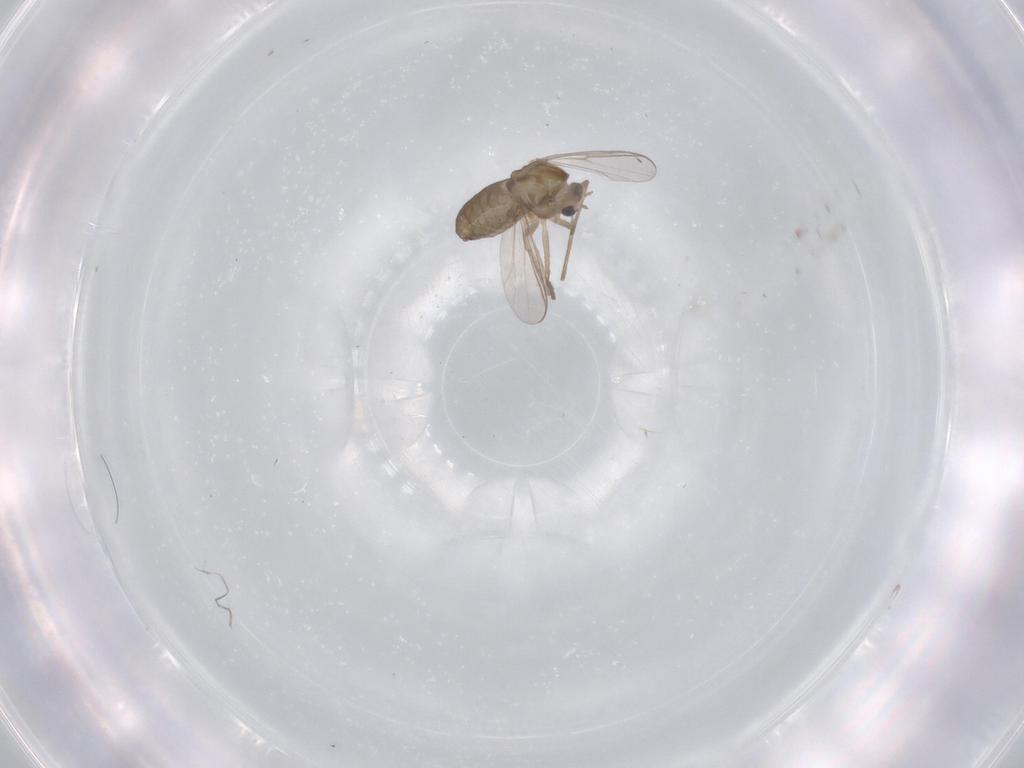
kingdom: Animalia
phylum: Arthropoda
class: Insecta
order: Diptera
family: Chironomidae
